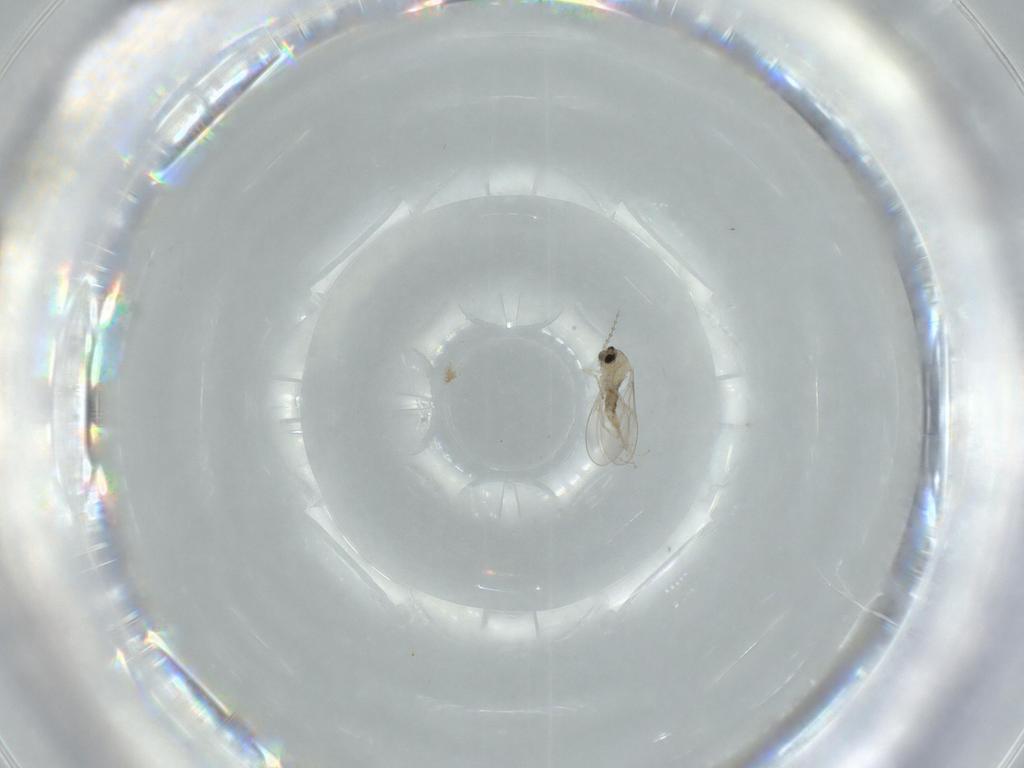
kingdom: Animalia
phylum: Arthropoda
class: Insecta
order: Diptera
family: Cecidomyiidae
